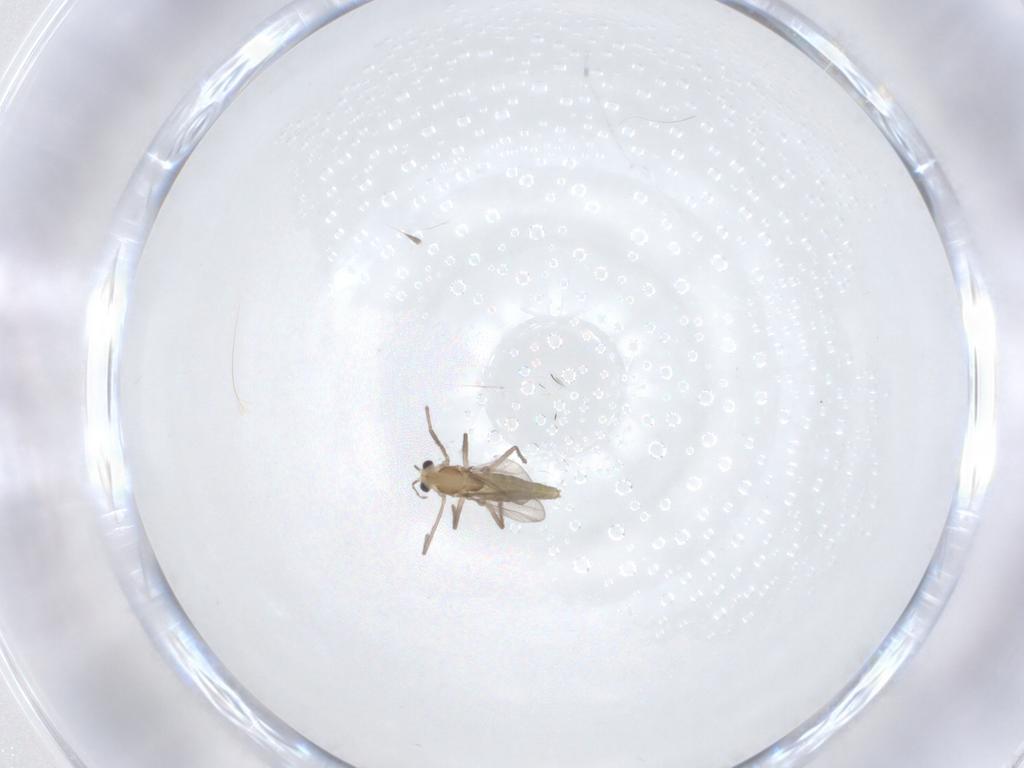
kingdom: Animalia
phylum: Arthropoda
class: Insecta
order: Diptera
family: Chironomidae
